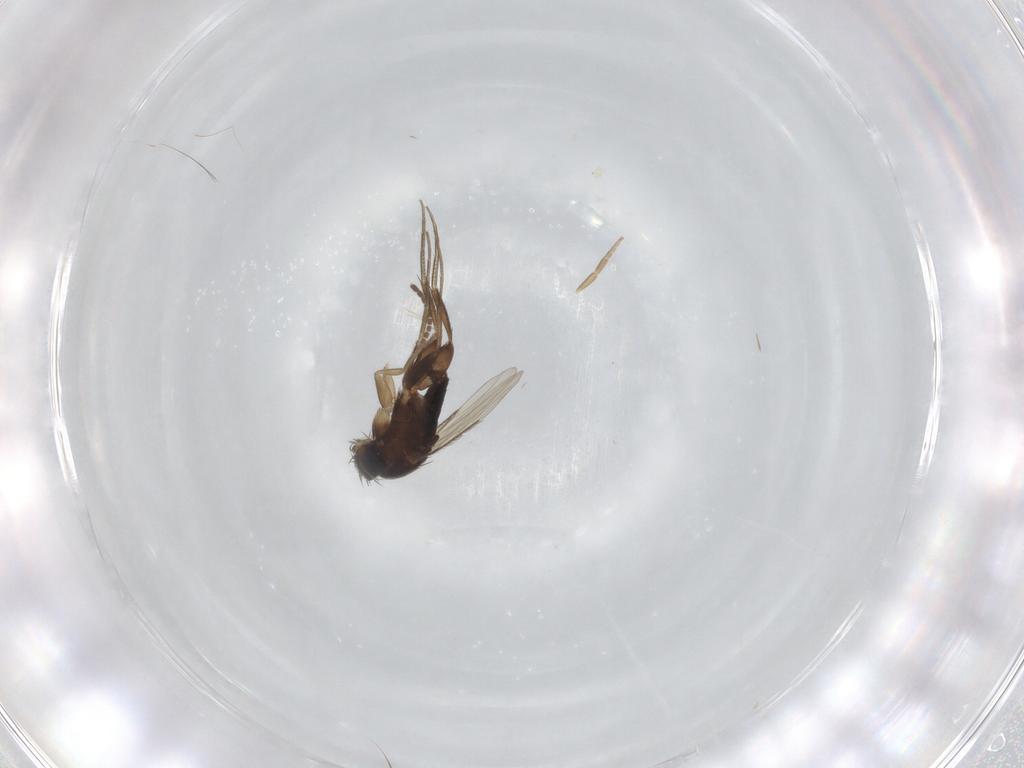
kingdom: Animalia
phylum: Arthropoda
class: Insecta
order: Diptera
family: Sciaridae
